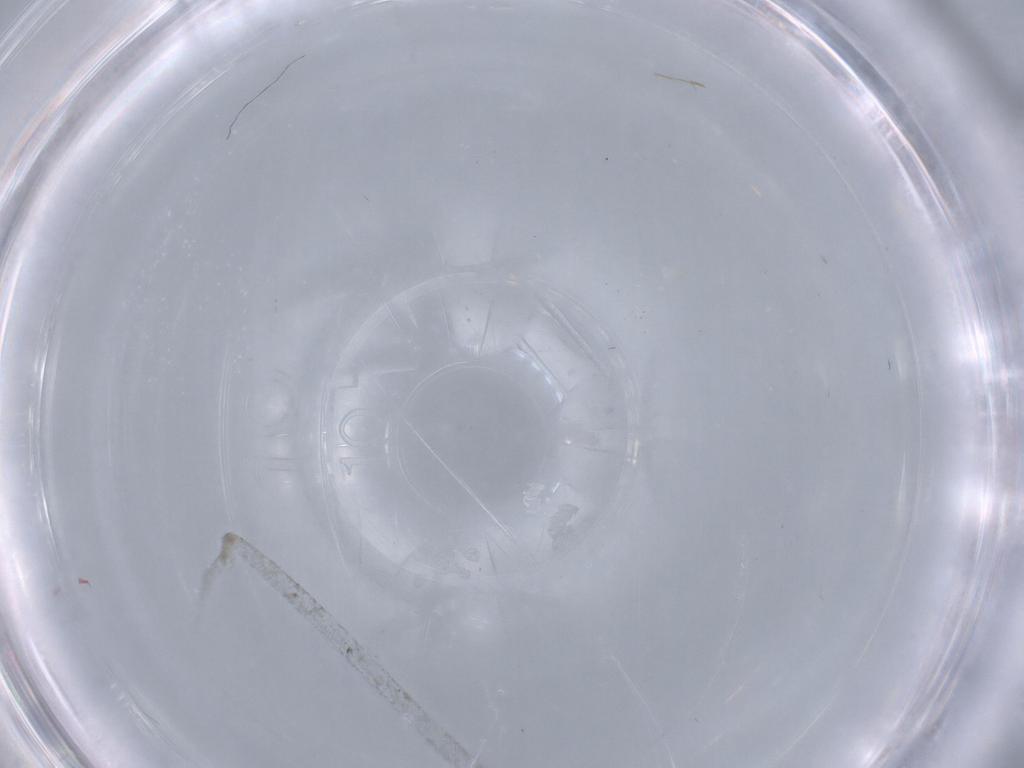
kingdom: Animalia
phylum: Arthropoda
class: Insecta
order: Diptera
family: Chironomidae
